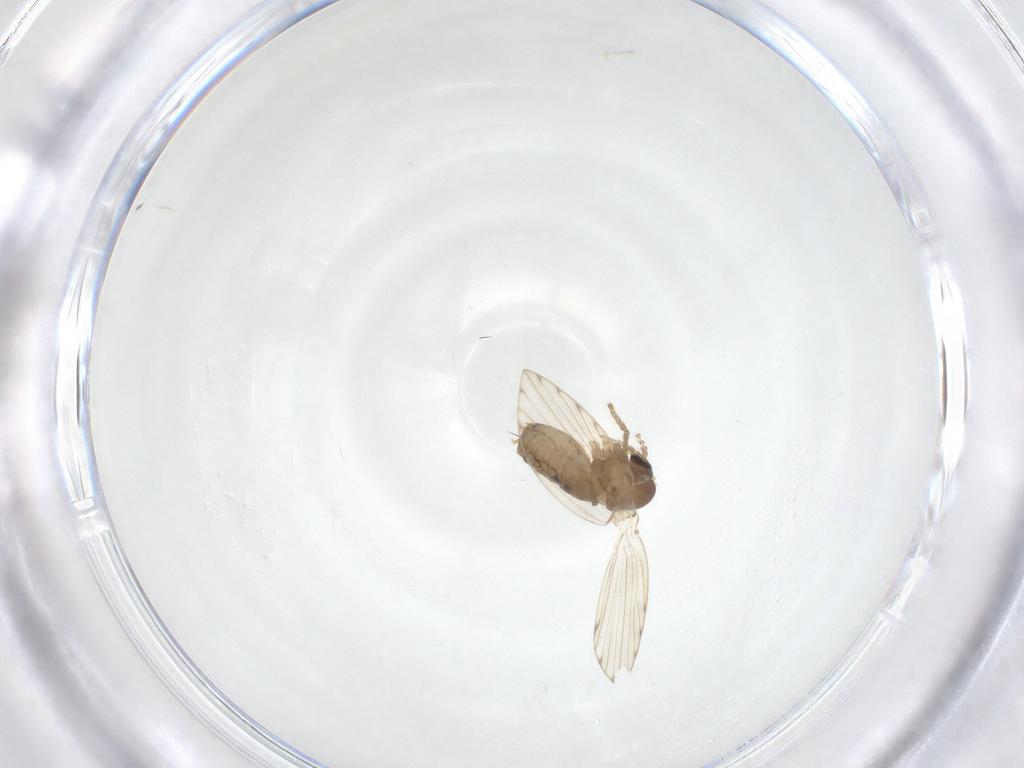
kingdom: Animalia
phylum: Arthropoda
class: Insecta
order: Diptera
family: Psychodidae
